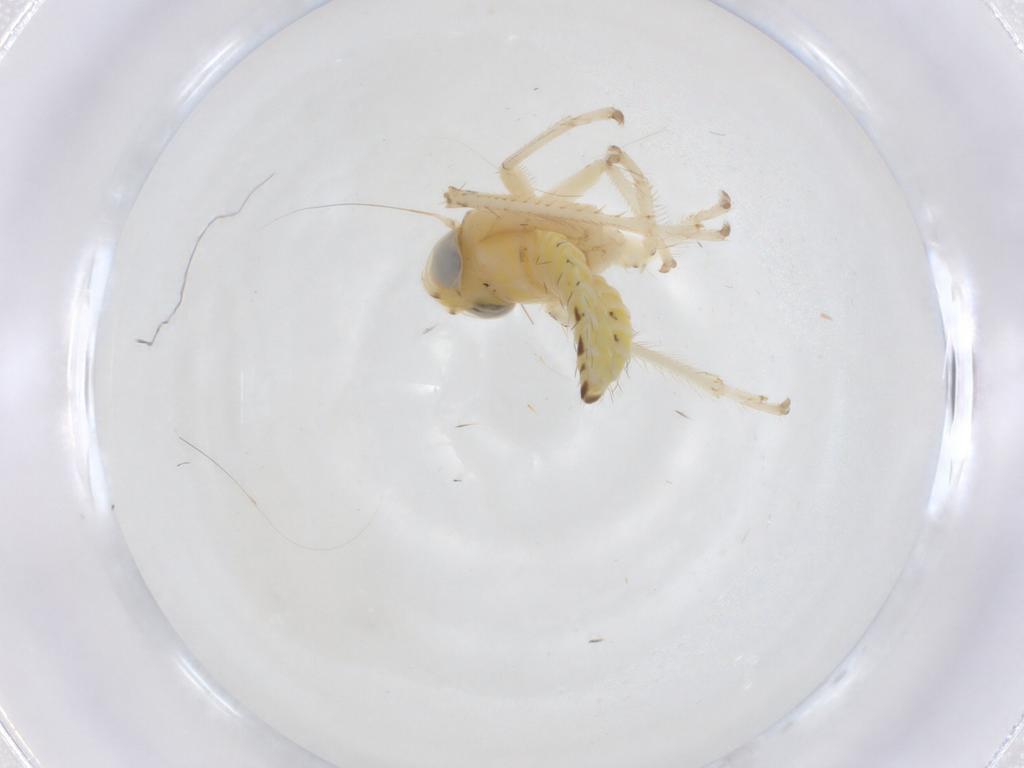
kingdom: Animalia
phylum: Arthropoda
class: Insecta
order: Hemiptera
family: Cicadellidae
